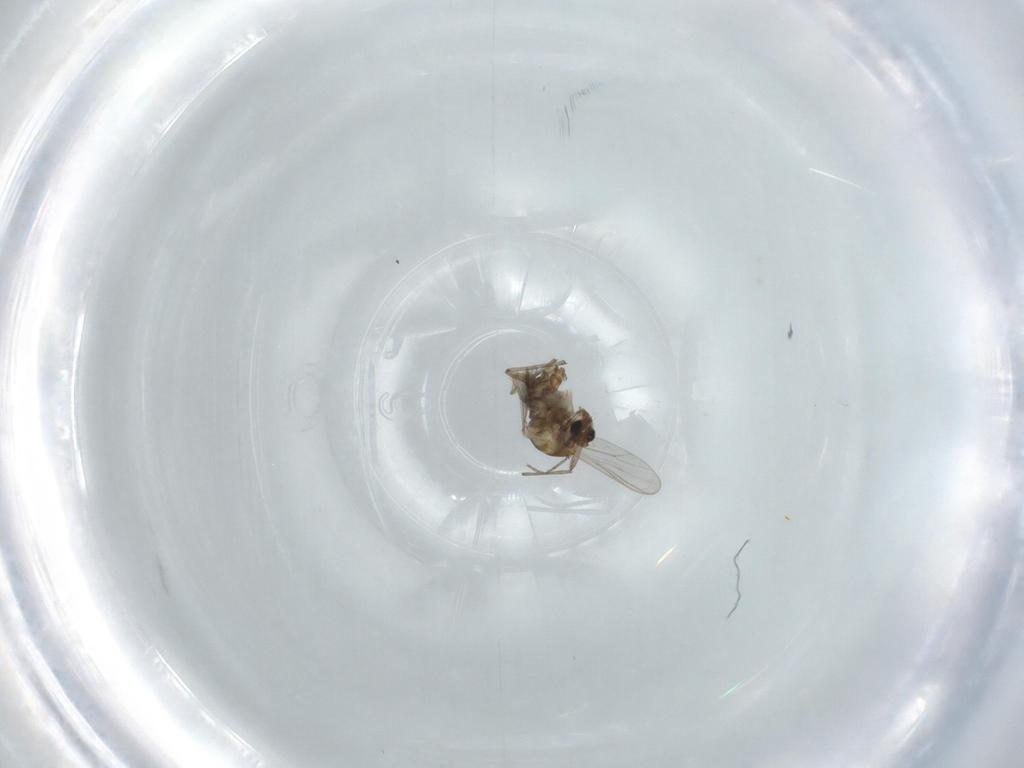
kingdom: Animalia
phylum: Arthropoda
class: Insecta
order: Diptera
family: Chironomidae
